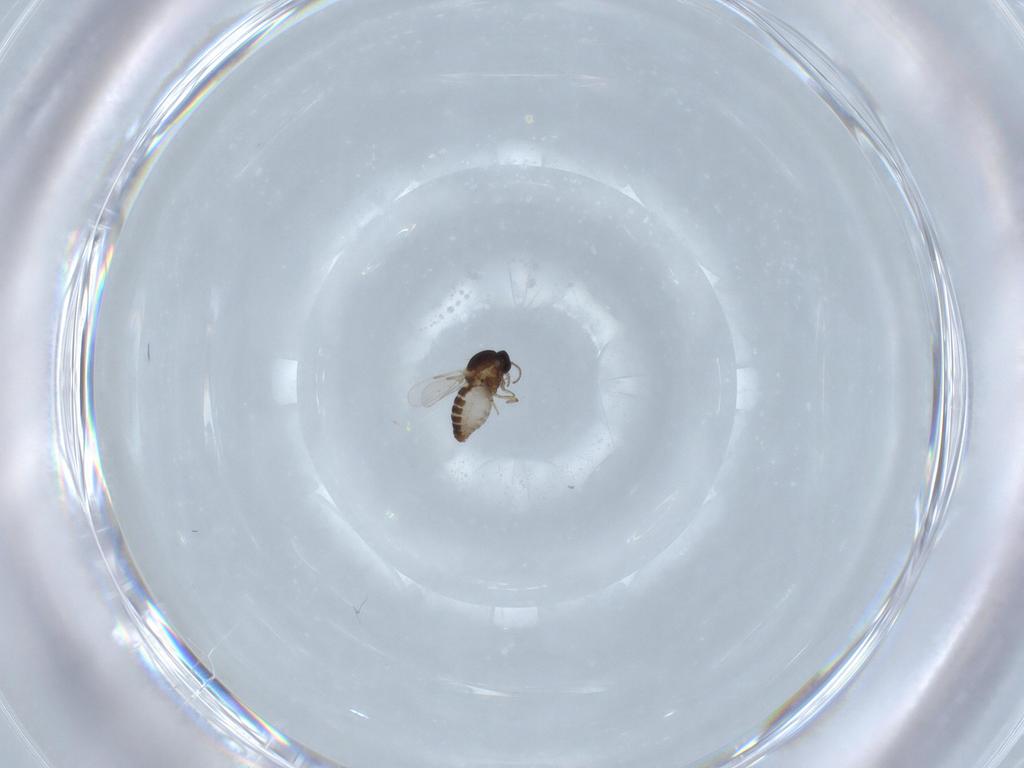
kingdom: Animalia
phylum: Arthropoda
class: Insecta
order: Diptera
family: Ceratopogonidae
